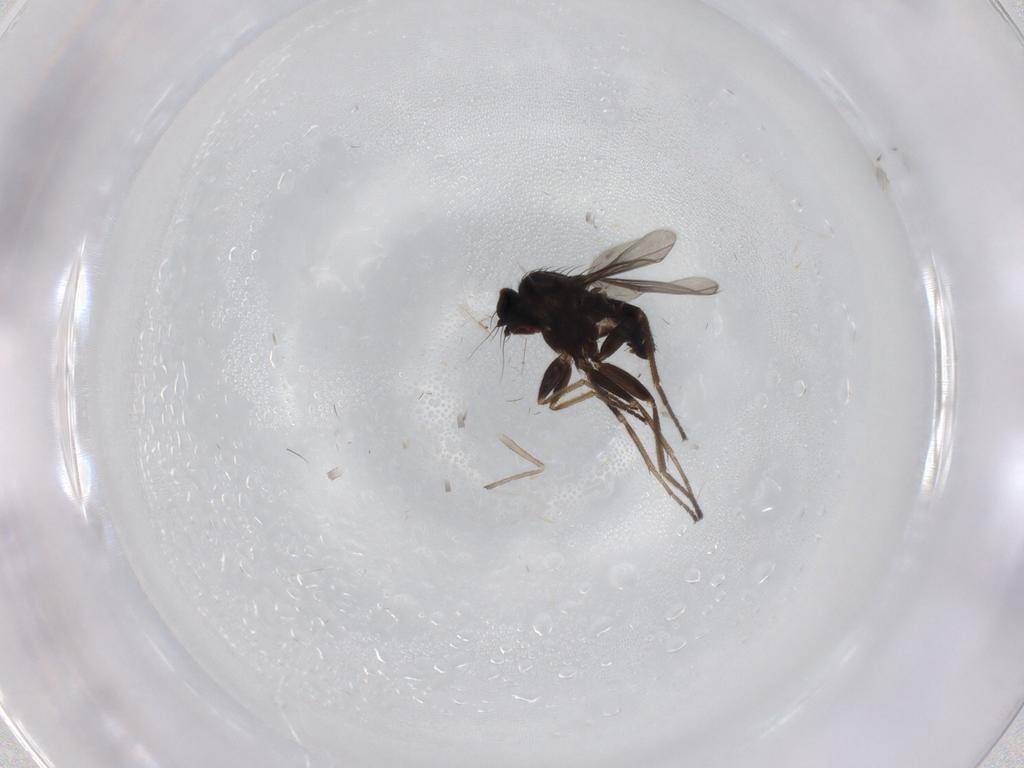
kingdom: Animalia
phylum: Arthropoda
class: Insecta
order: Diptera
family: Dolichopodidae
